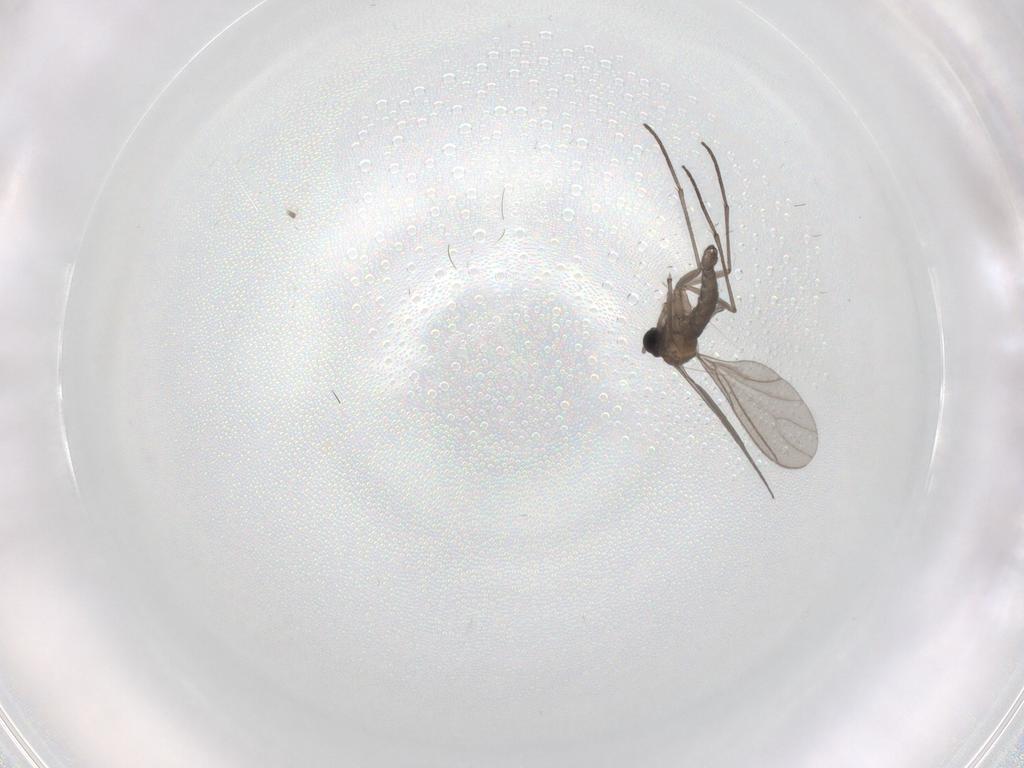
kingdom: Animalia
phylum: Arthropoda
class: Insecta
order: Diptera
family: Sciaridae
